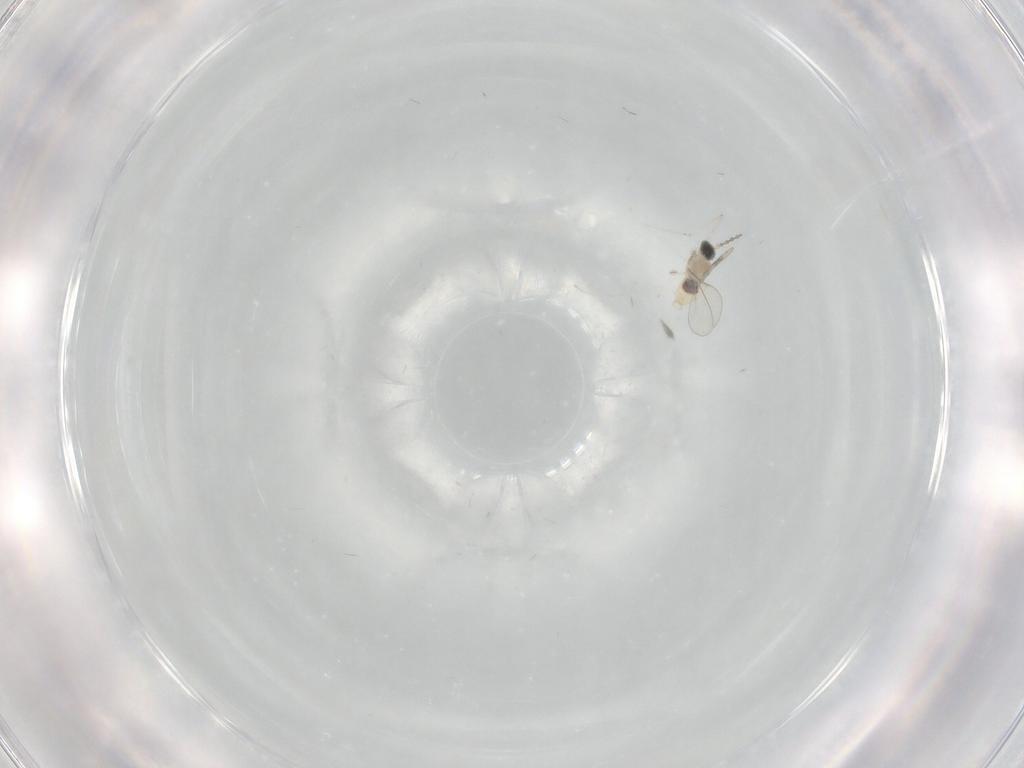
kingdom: Animalia
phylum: Arthropoda
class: Insecta
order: Diptera
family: Cecidomyiidae
